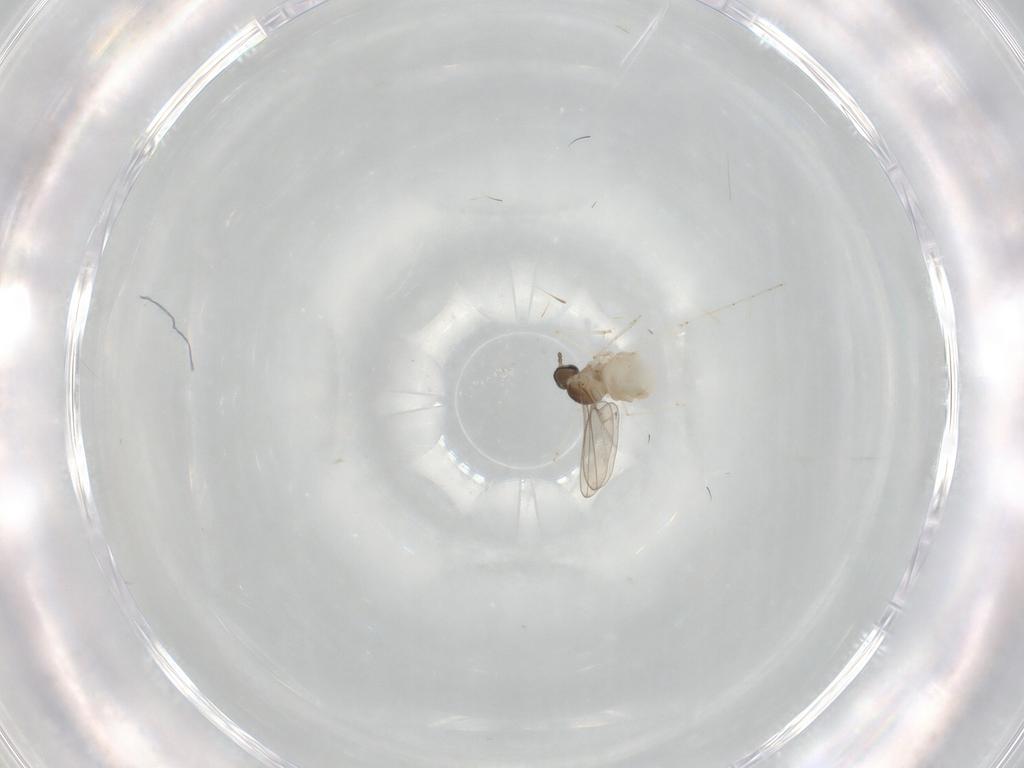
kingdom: Animalia
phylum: Arthropoda
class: Insecta
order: Diptera
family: Cecidomyiidae
